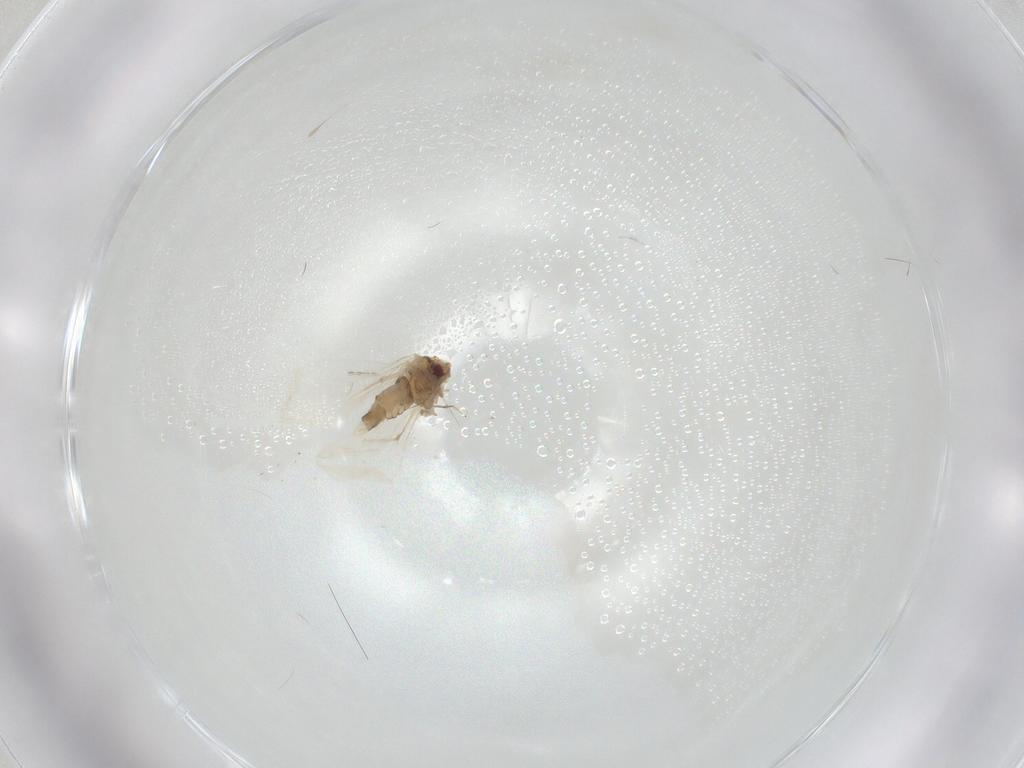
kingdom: Animalia
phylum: Arthropoda
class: Insecta
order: Hemiptera
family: Aleyrodidae
